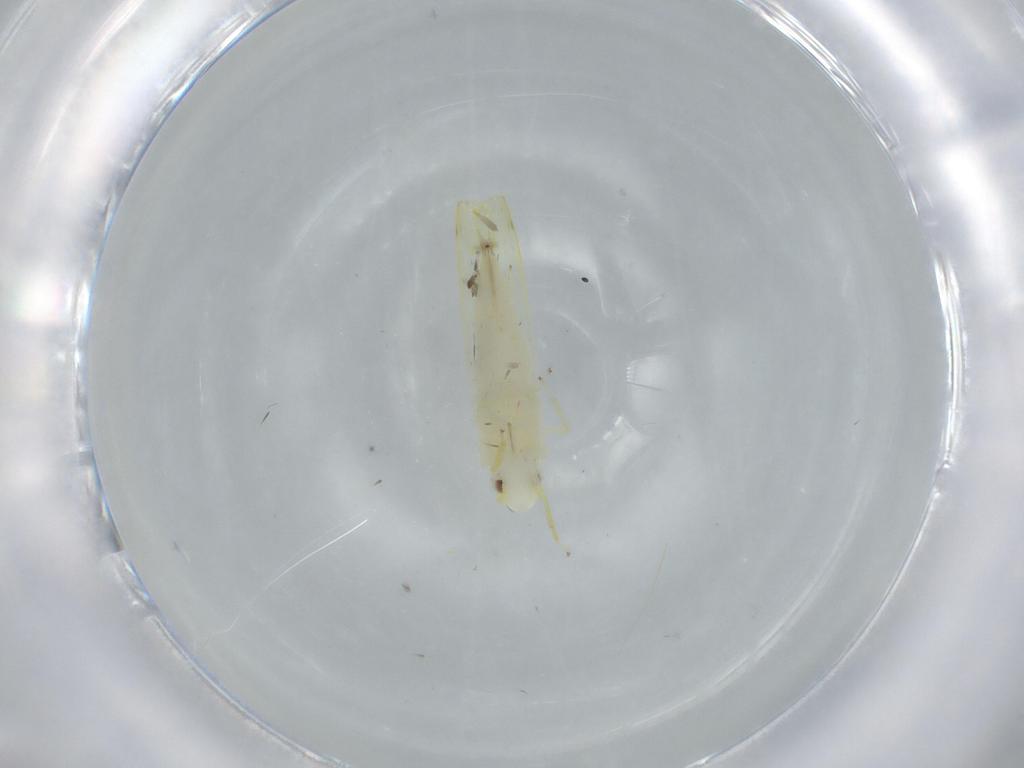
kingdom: Animalia
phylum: Arthropoda
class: Insecta
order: Hemiptera
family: Cicadellidae
